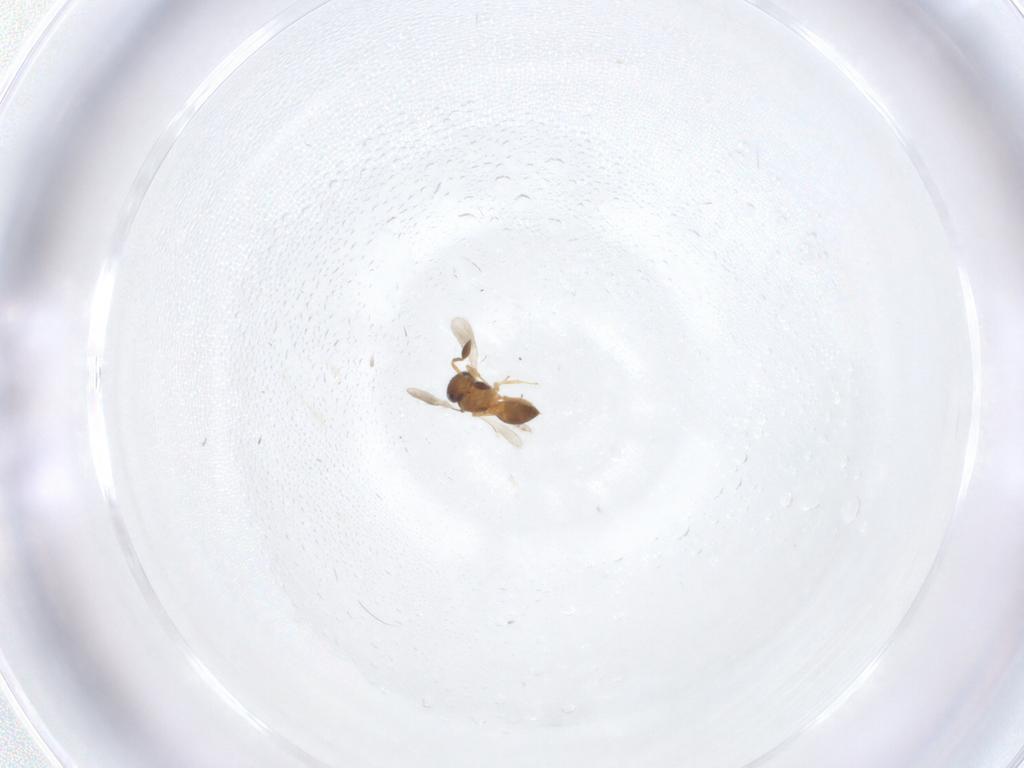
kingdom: Animalia
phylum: Arthropoda
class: Insecta
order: Hymenoptera
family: Scelionidae
